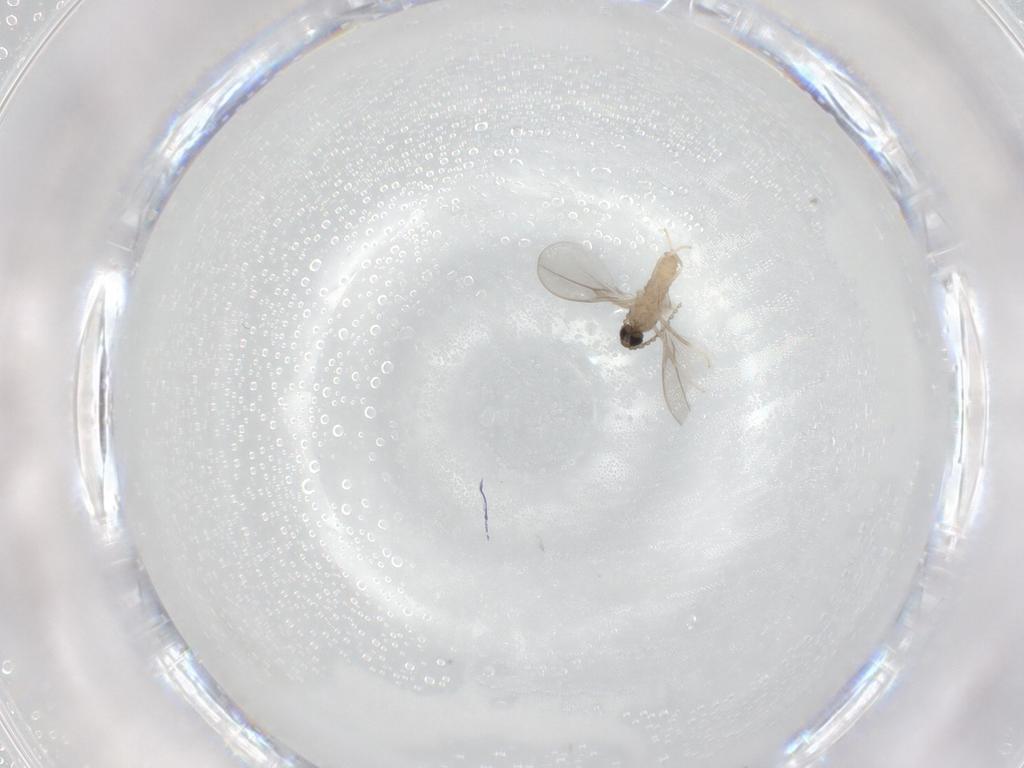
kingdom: Animalia
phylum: Arthropoda
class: Insecta
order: Diptera
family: Cecidomyiidae
